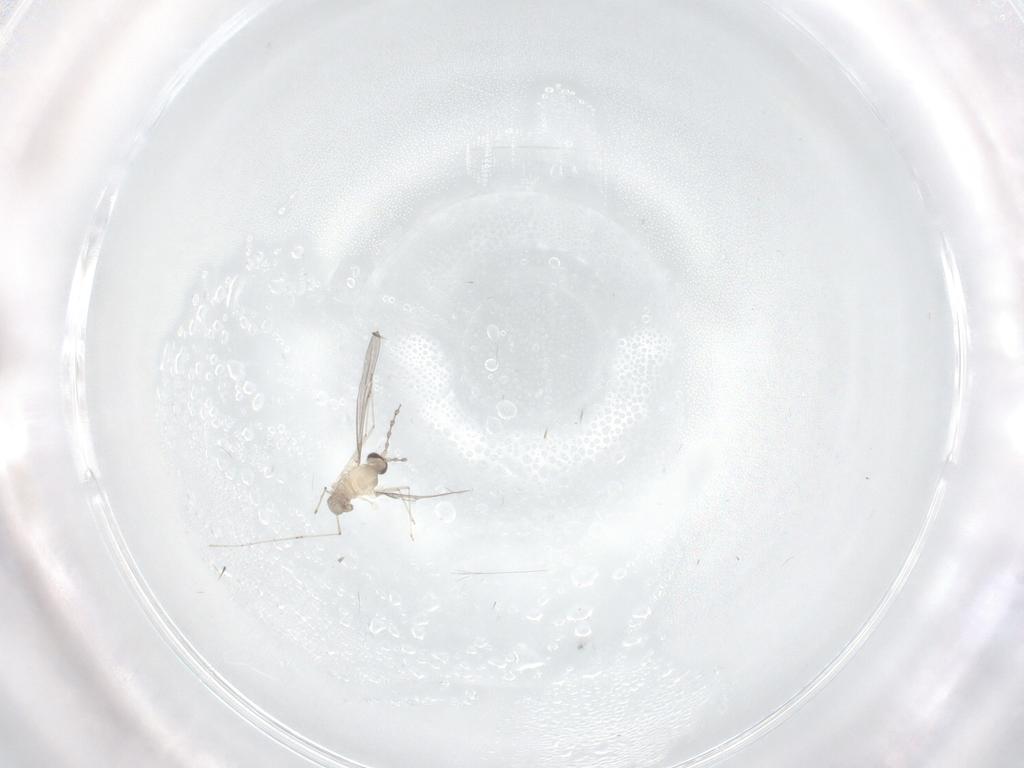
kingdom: Animalia
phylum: Arthropoda
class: Insecta
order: Diptera
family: Cecidomyiidae
